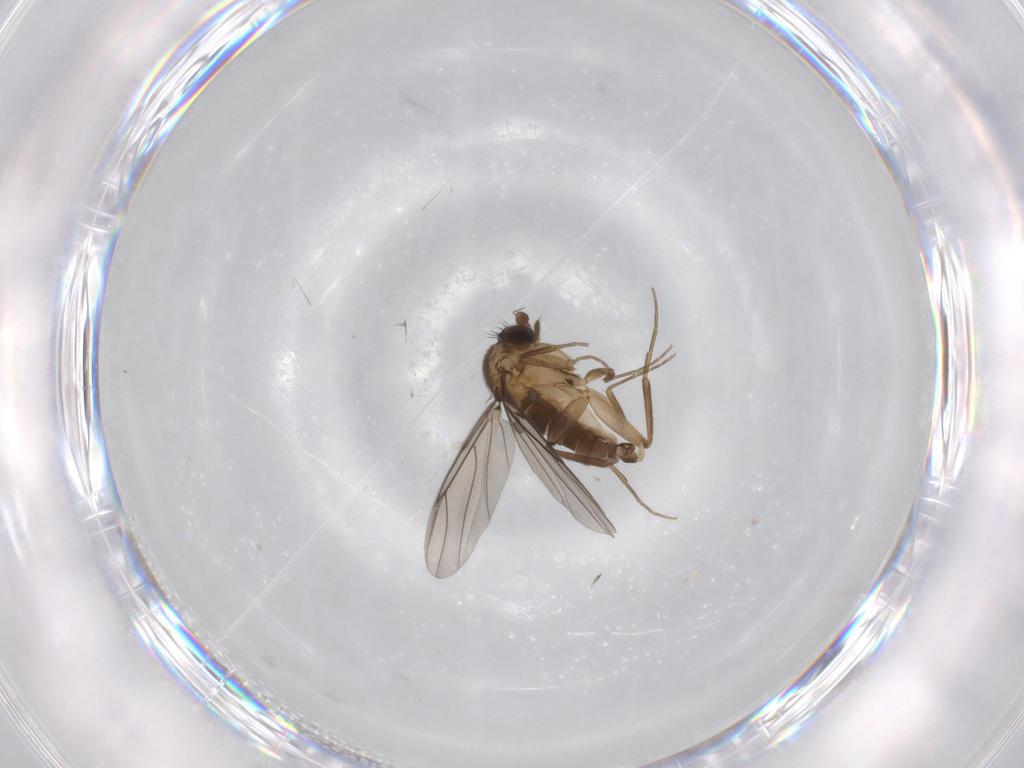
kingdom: Animalia
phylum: Arthropoda
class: Insecta
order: Diptera
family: Phoridae
